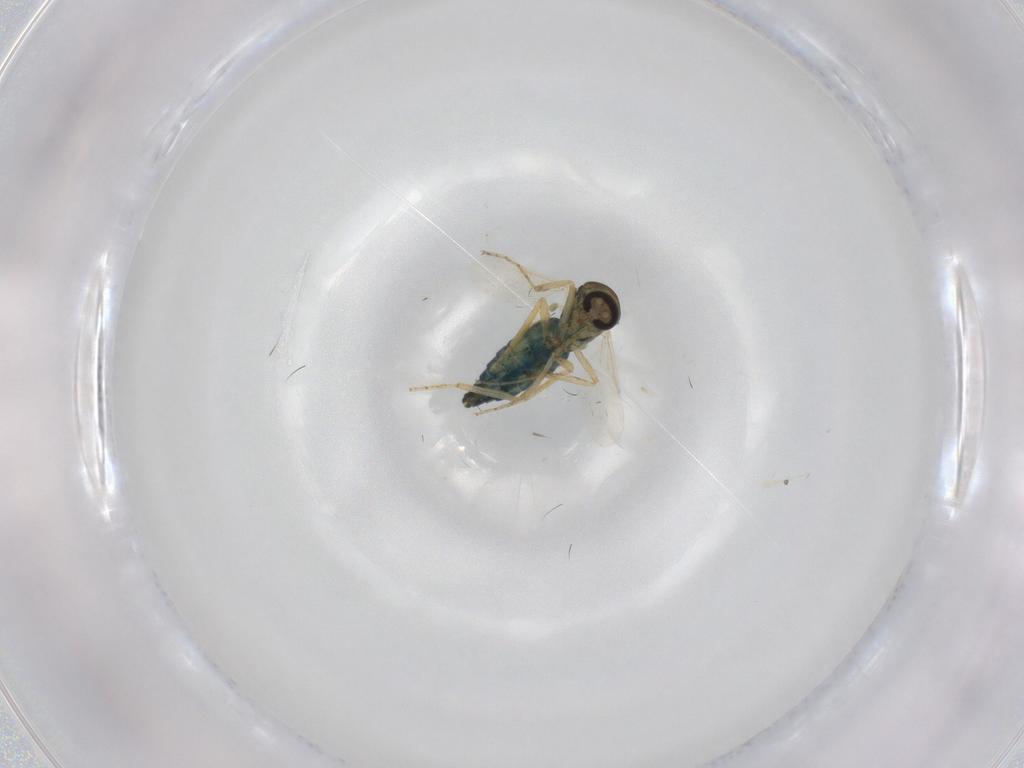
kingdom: Animalia
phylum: Arthropoda
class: Insecta
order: Diptera
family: Ceratopogonidae
